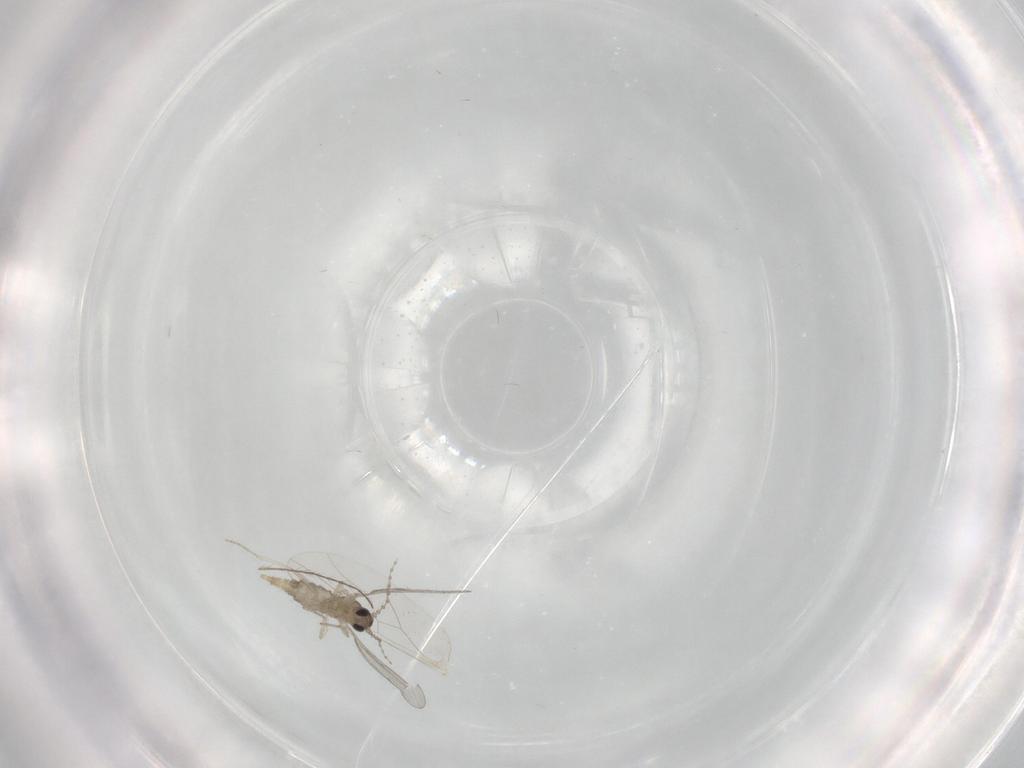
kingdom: Animalia
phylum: Arthropoda
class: Insecta
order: Diptera
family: Cecidomyiidae
